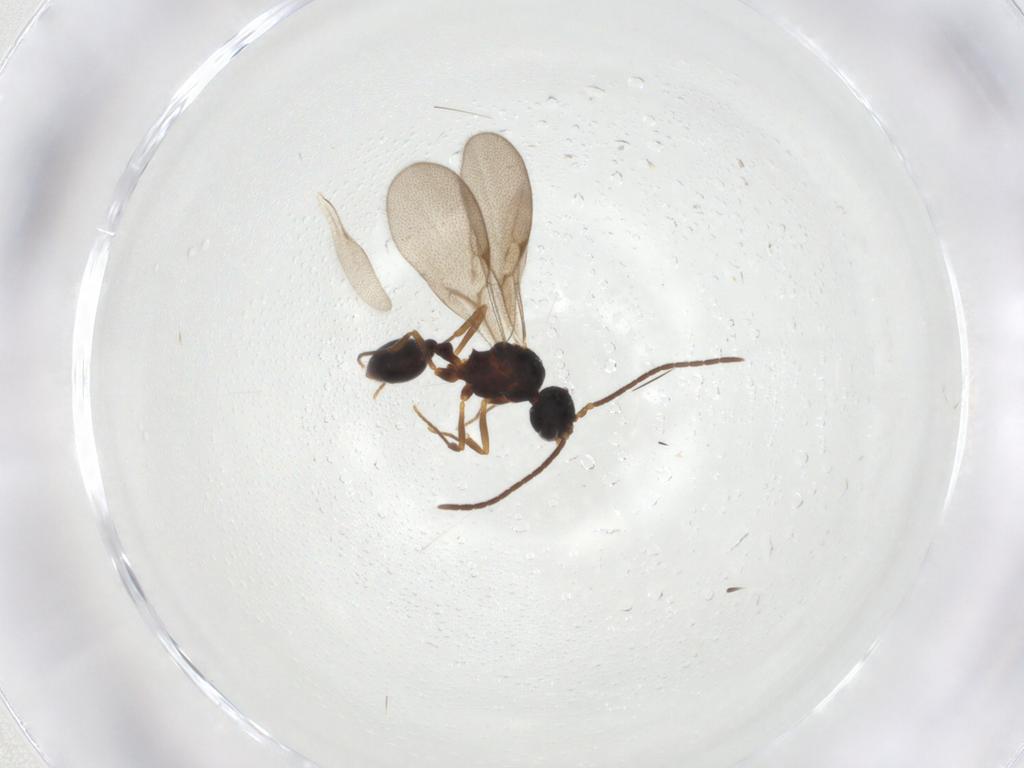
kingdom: Animalia
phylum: Arthropoda
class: Insecta
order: Hymenoptera
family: Formicidae
